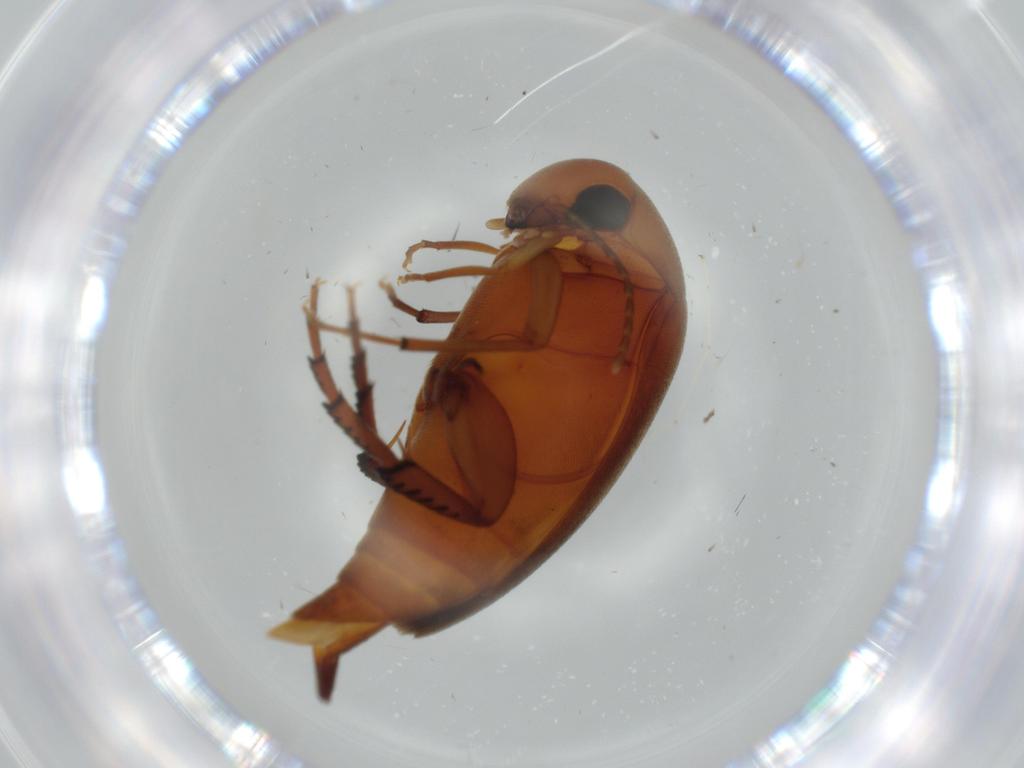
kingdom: Animalia
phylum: Arthropoda
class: Insecta
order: Coleoptera
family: Mordellidae
